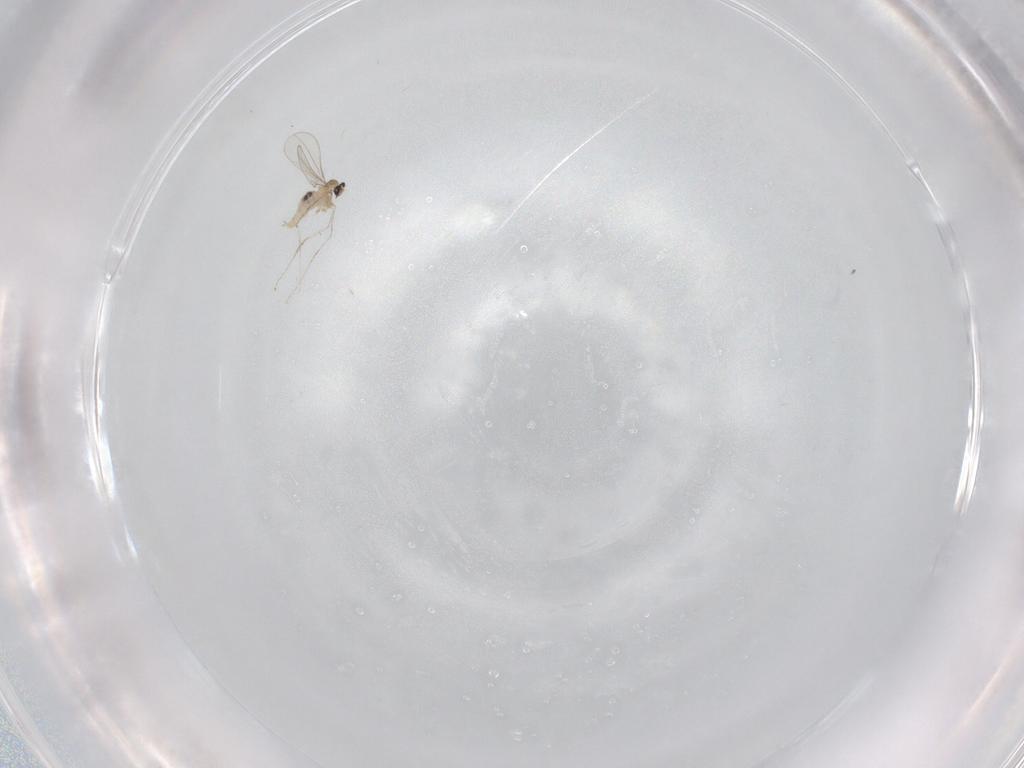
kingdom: Animalia
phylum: Arthropoda
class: Insecta
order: Diptera
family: Cecidomyiidae
